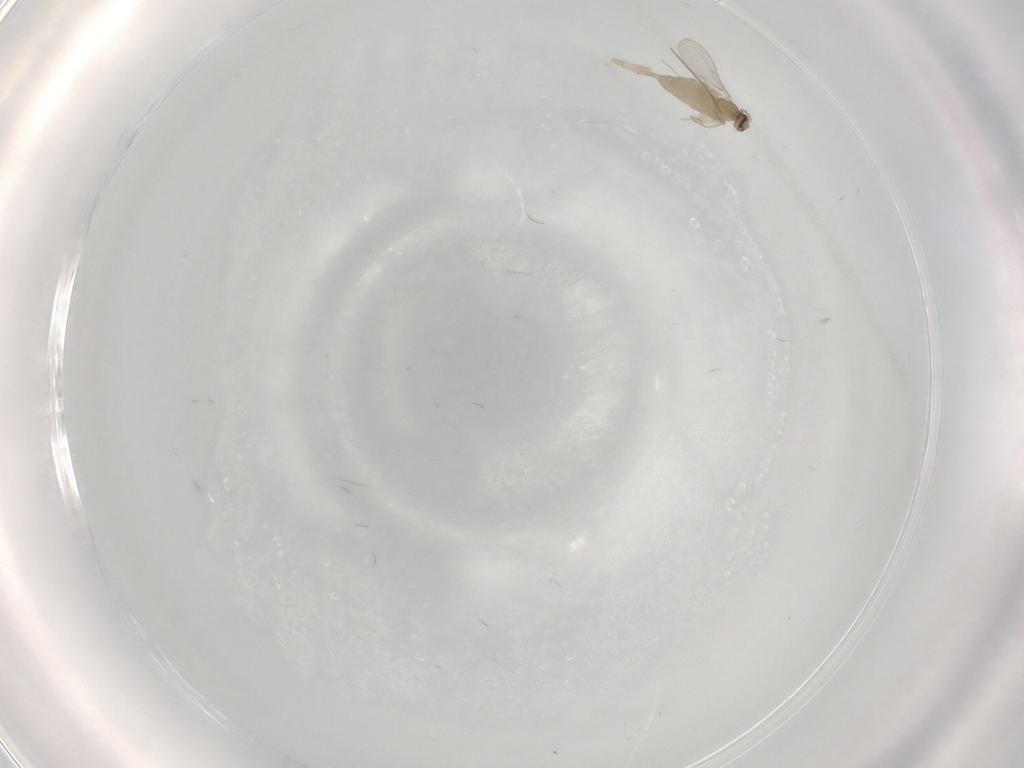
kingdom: Animalia
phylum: Arthropoda
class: Insecta
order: Diptera
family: Cecidomyiidae
